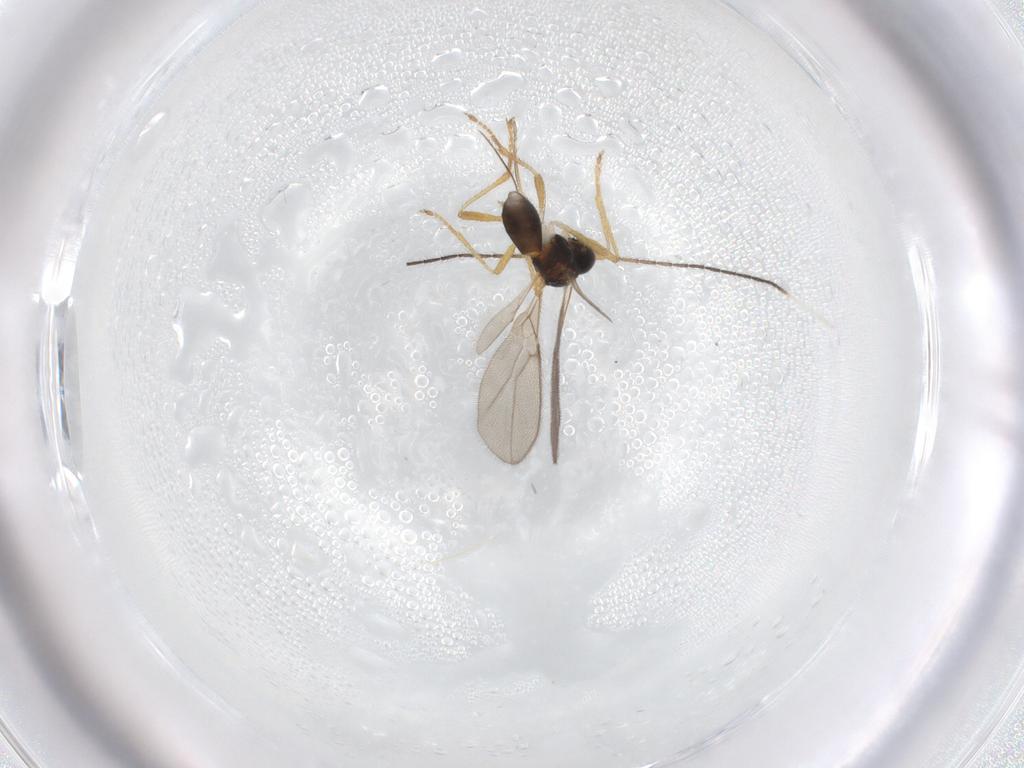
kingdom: Animalia
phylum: Arthropoda
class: Insecta
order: Hymenoptera
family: Braconidae
